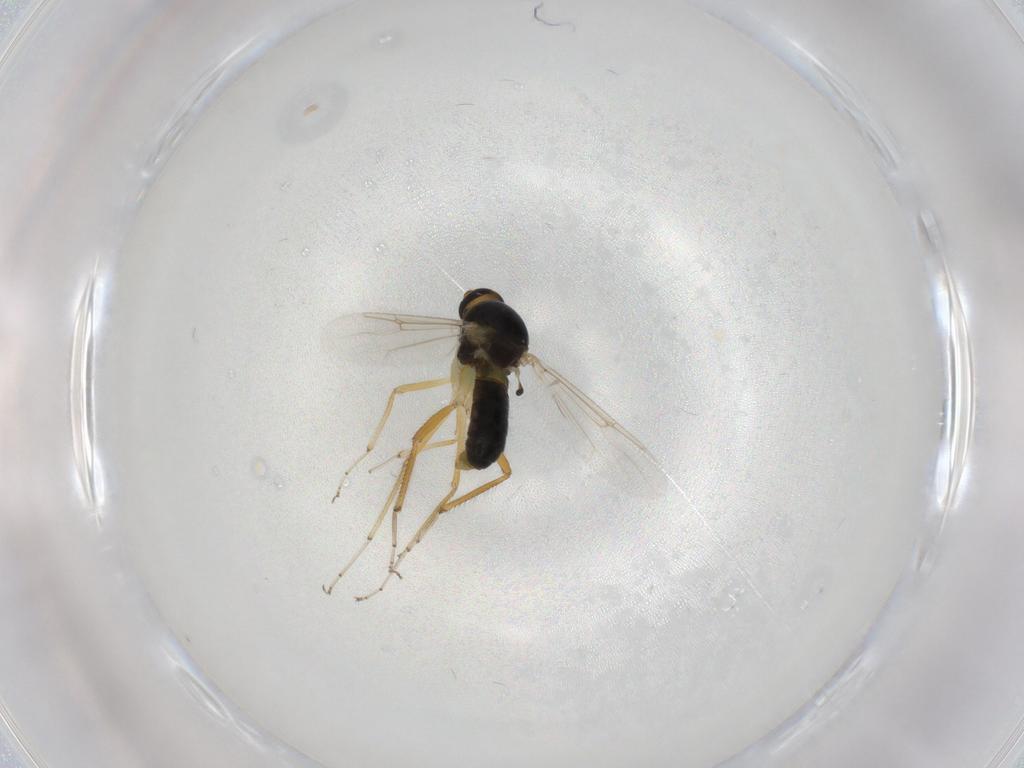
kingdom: Animalia
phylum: Arthropoda
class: Insecta
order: Diptera
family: Ceratopogonidae
